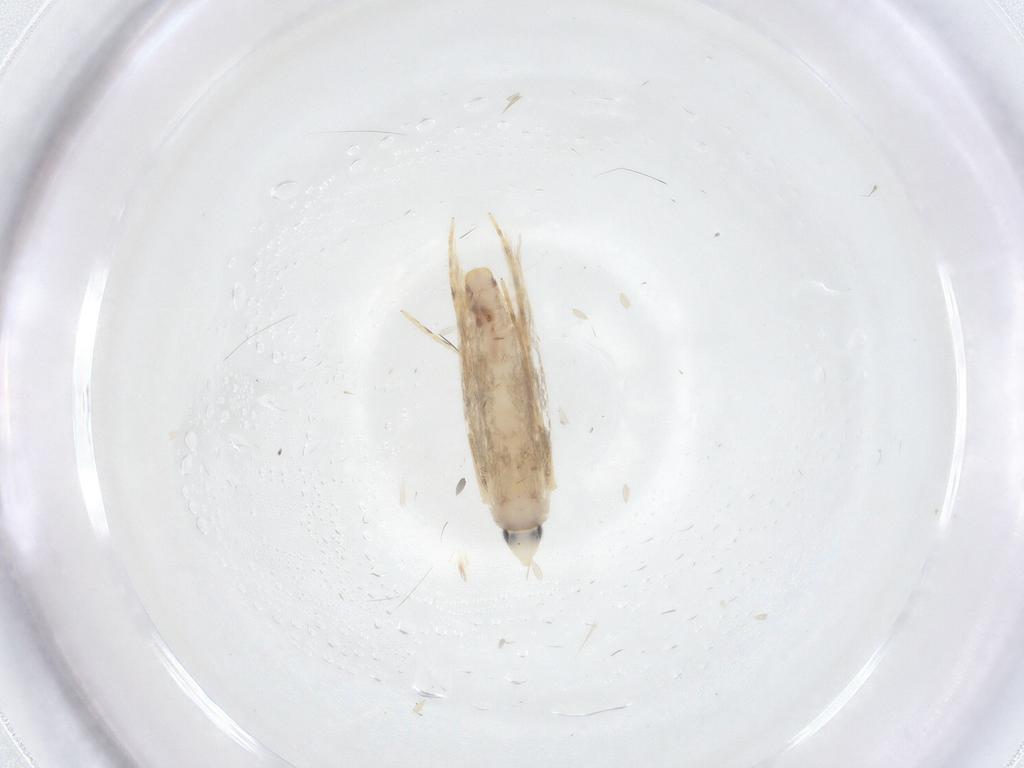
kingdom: Animalia
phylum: Arthropoda
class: Insecta
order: Lepidoptera
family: Tineidae
